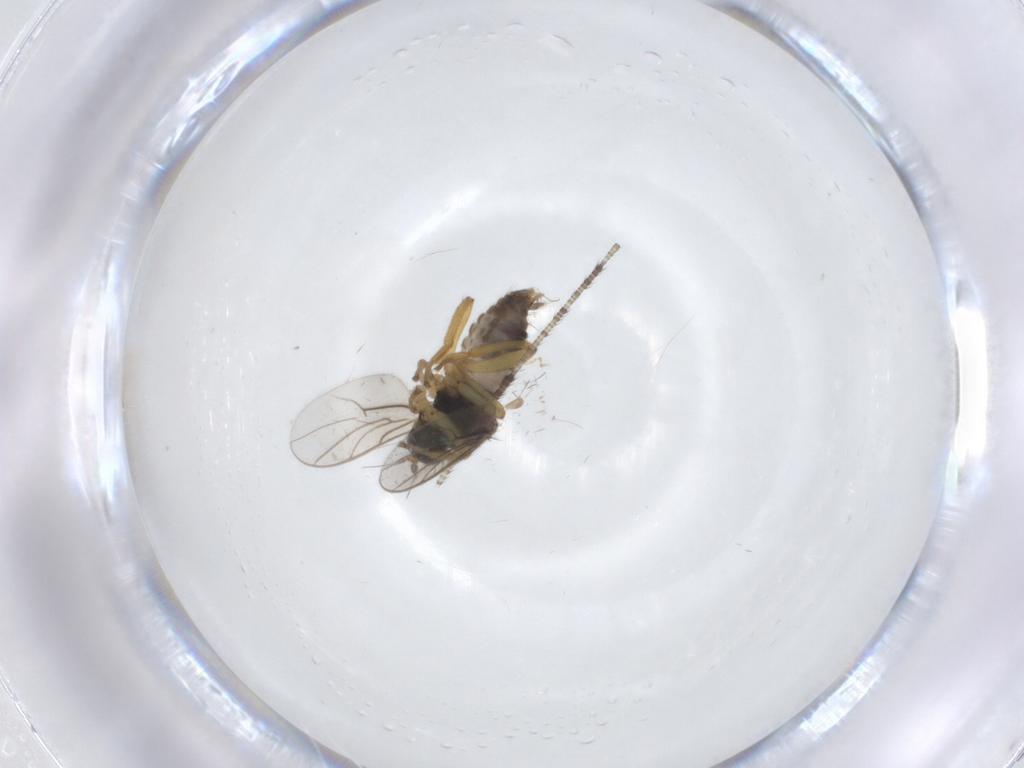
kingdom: Animalia
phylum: Arthropoda
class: Insecta
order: Diptera
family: Hybotidae
